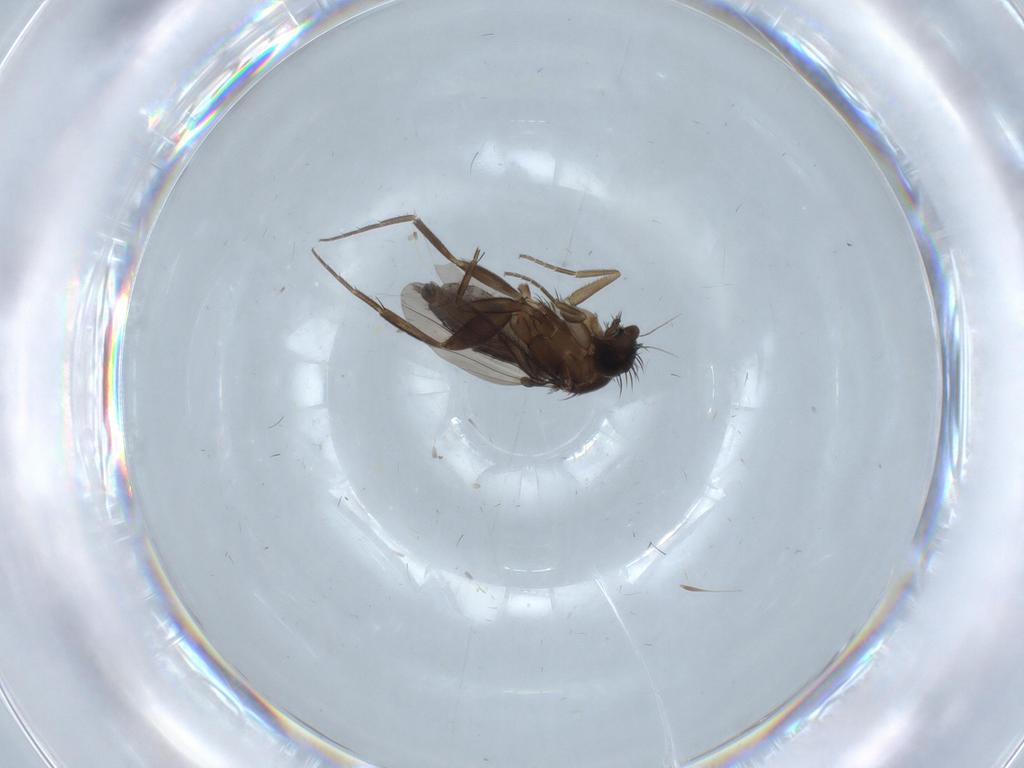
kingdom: Animalia
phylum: Arthropoda
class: Insecta
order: Diptera
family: Phoridae
